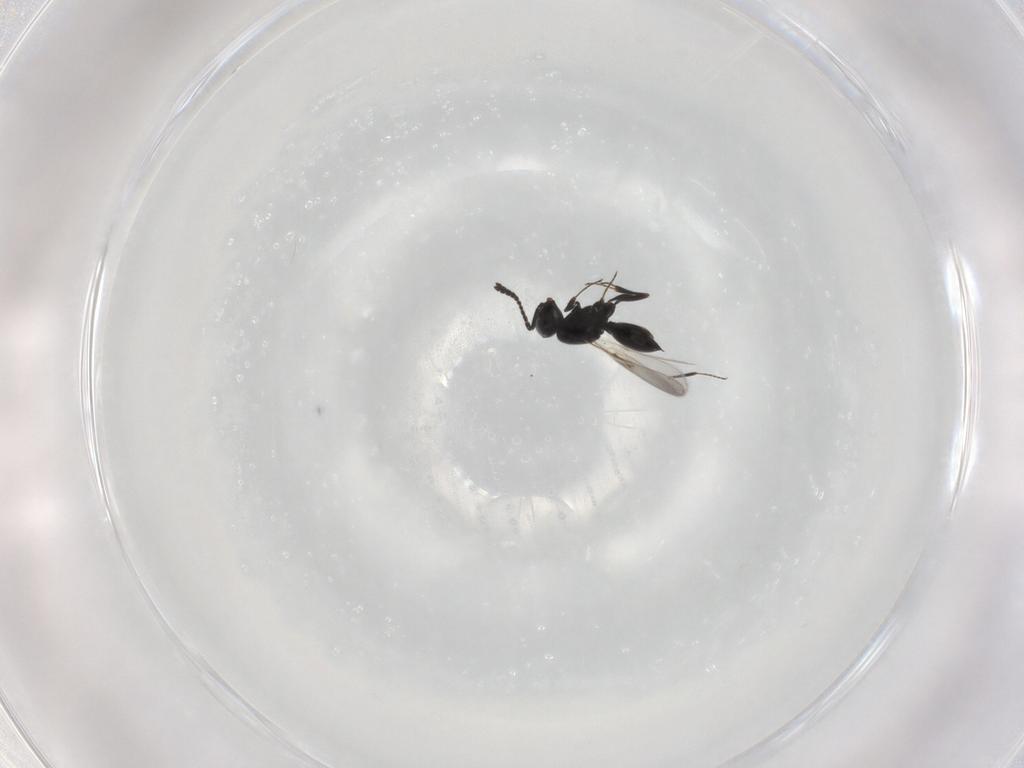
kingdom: Animalia
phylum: Arthropoda
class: Insecta
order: Hymenoptera
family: Scelionidae
